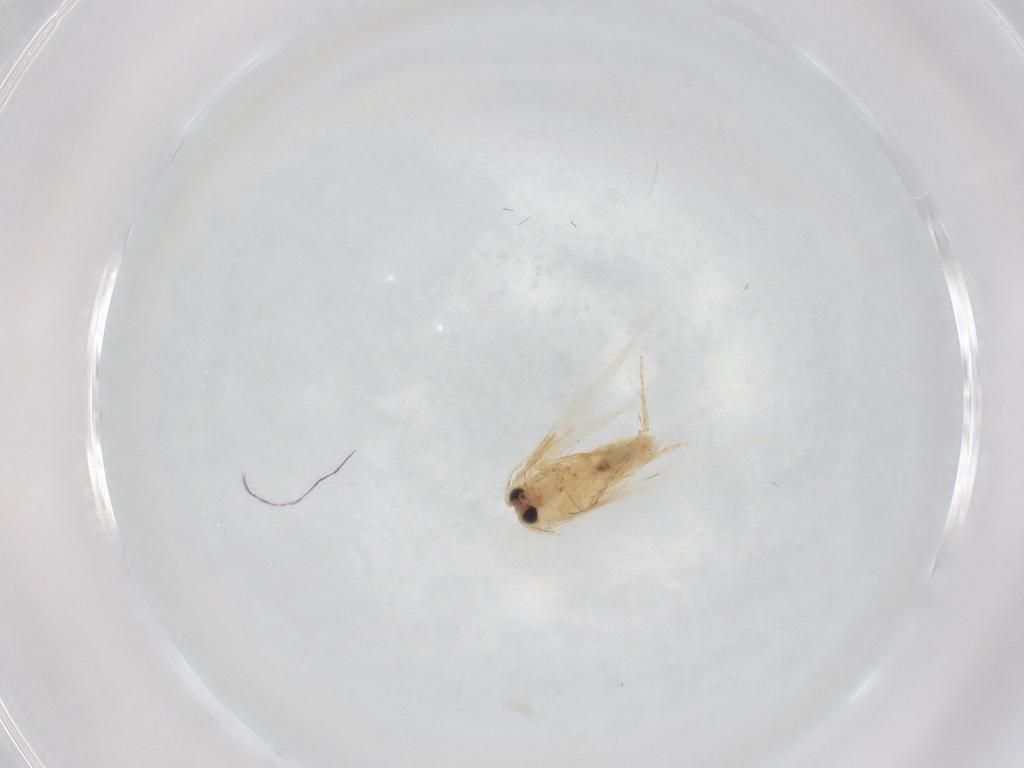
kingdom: Animalia
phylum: Arthropoda
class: Insecta
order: Lepidoptera
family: Nepticulidae
